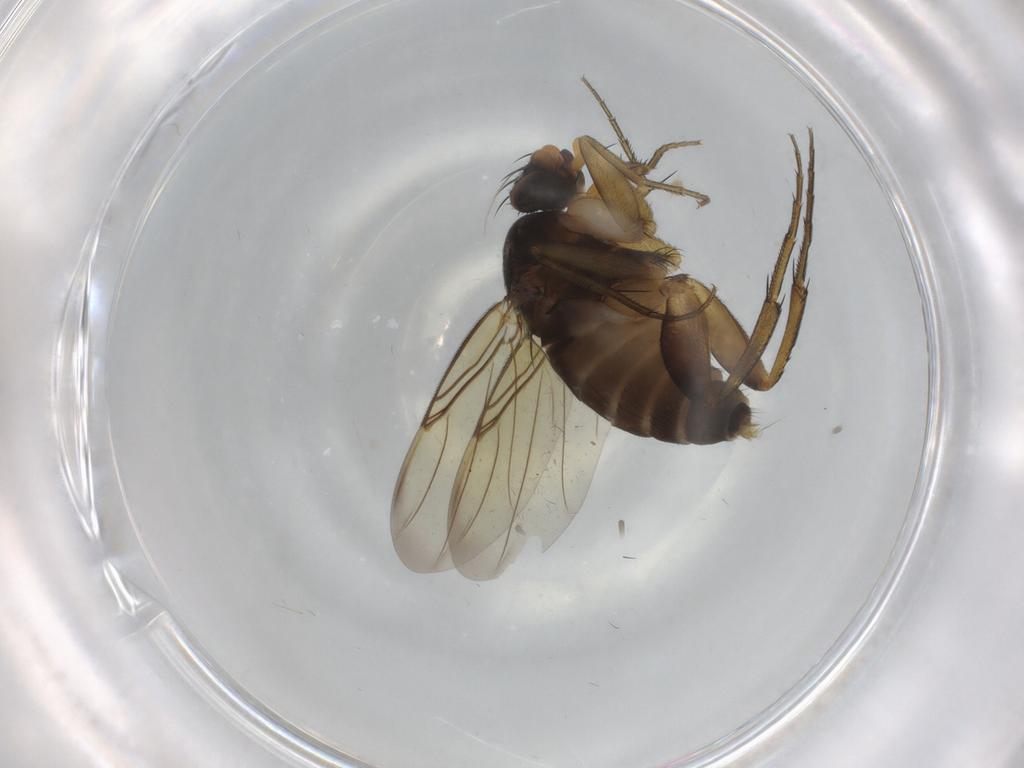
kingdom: Animalia
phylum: Arthropoda
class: Insecta
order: Diptera
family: Phoridae
